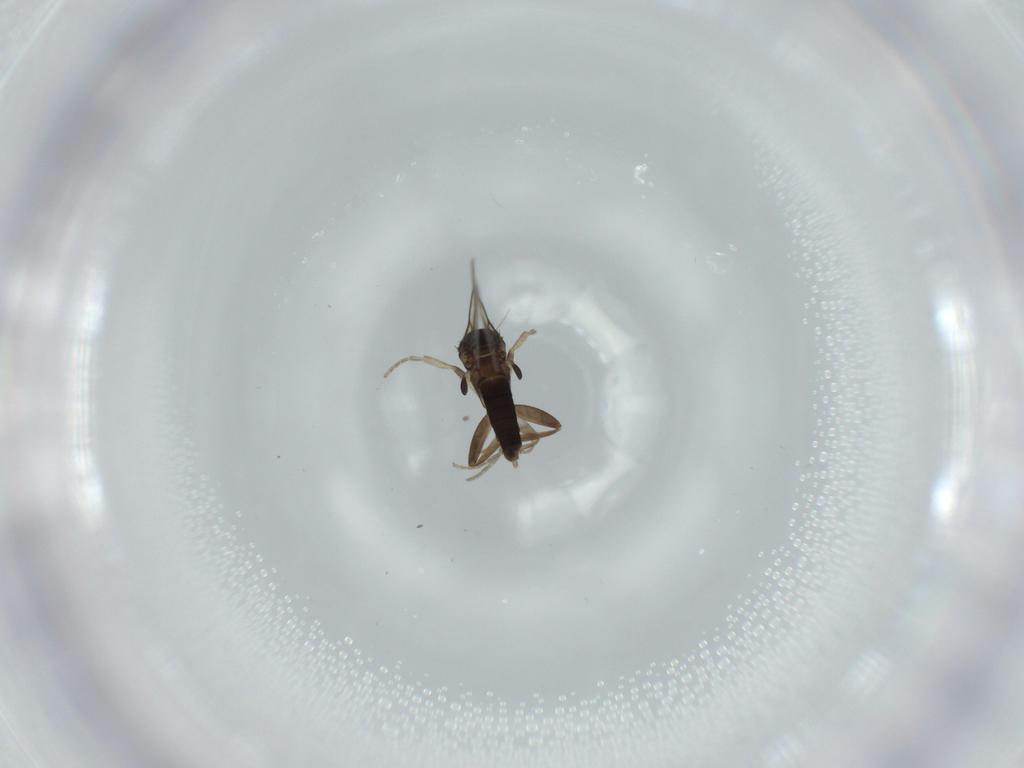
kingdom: Animalia
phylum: Arthropoda
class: Insecta
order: Diptera
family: Phoridae
